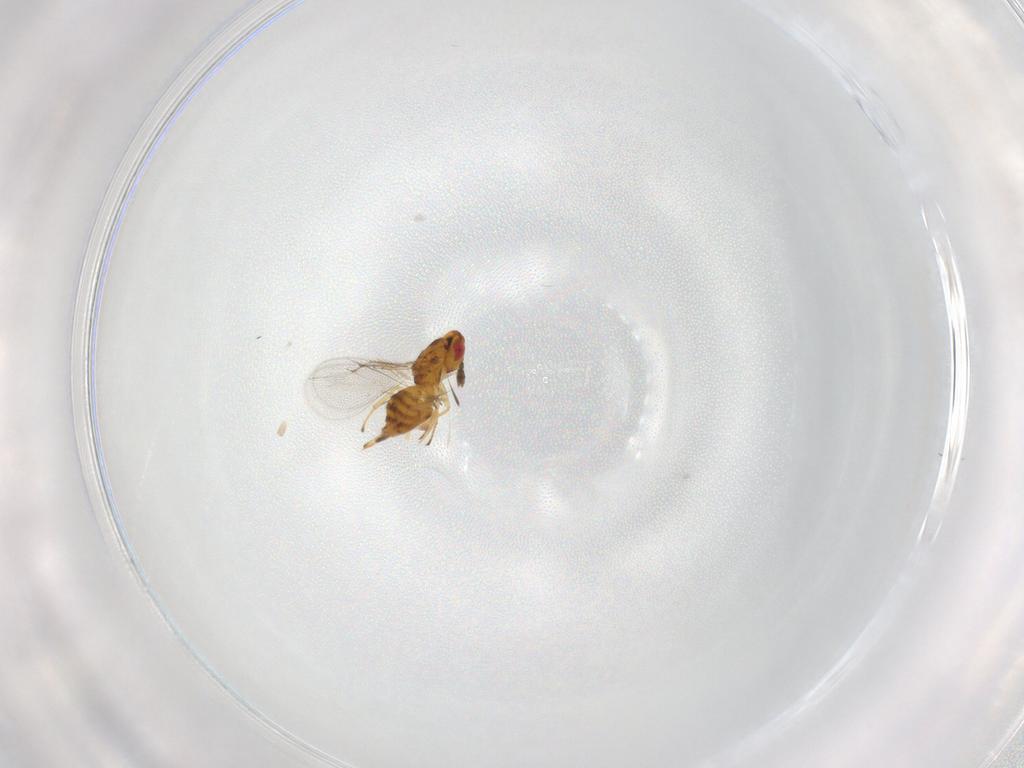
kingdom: Animalia
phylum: Arthropoda
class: Insecta
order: Hymenoptera
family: Eulophidae
